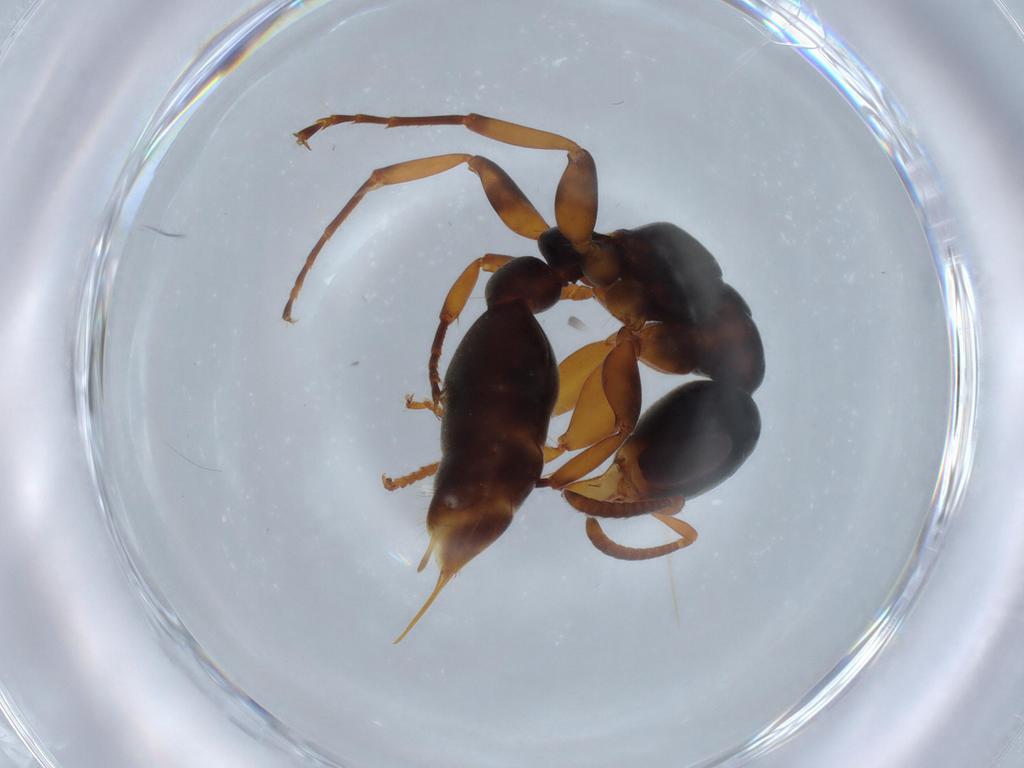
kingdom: Animalia
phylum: Arthropoda
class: Insecta
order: Hymenoptera
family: Formicidae
